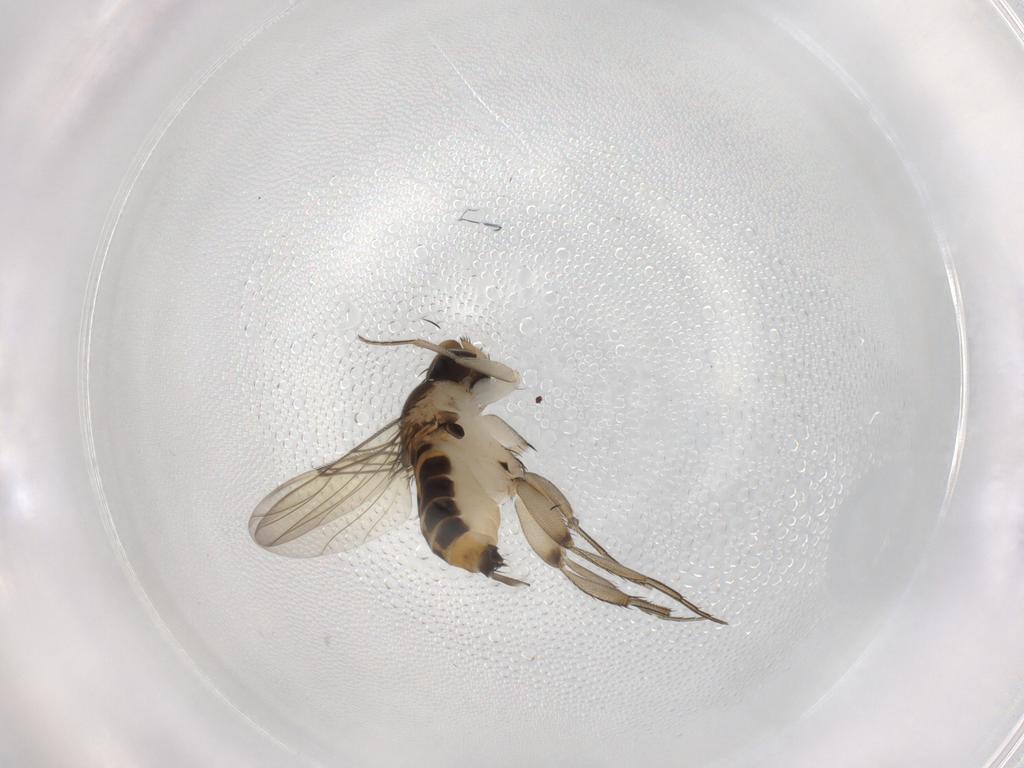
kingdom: Animalia
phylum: Arthropoda
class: Insecta
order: Diptera
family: Phoridae
